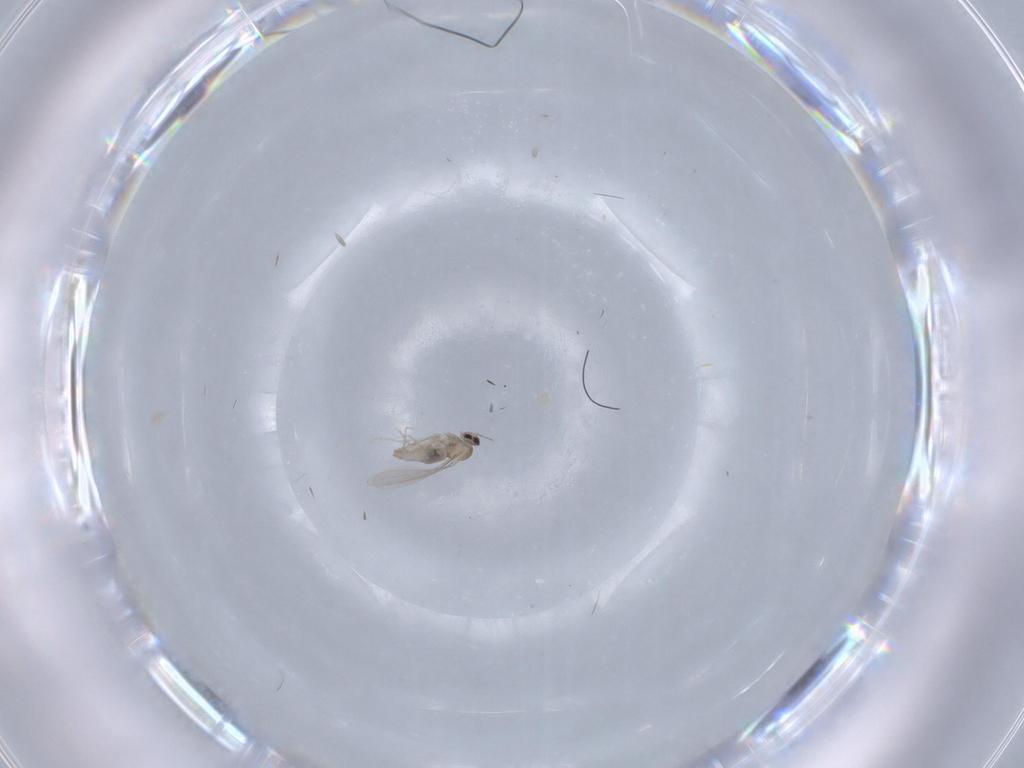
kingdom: Animalia
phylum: Arthropoda
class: Insecta
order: Diptera
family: Cecidomyiidae
